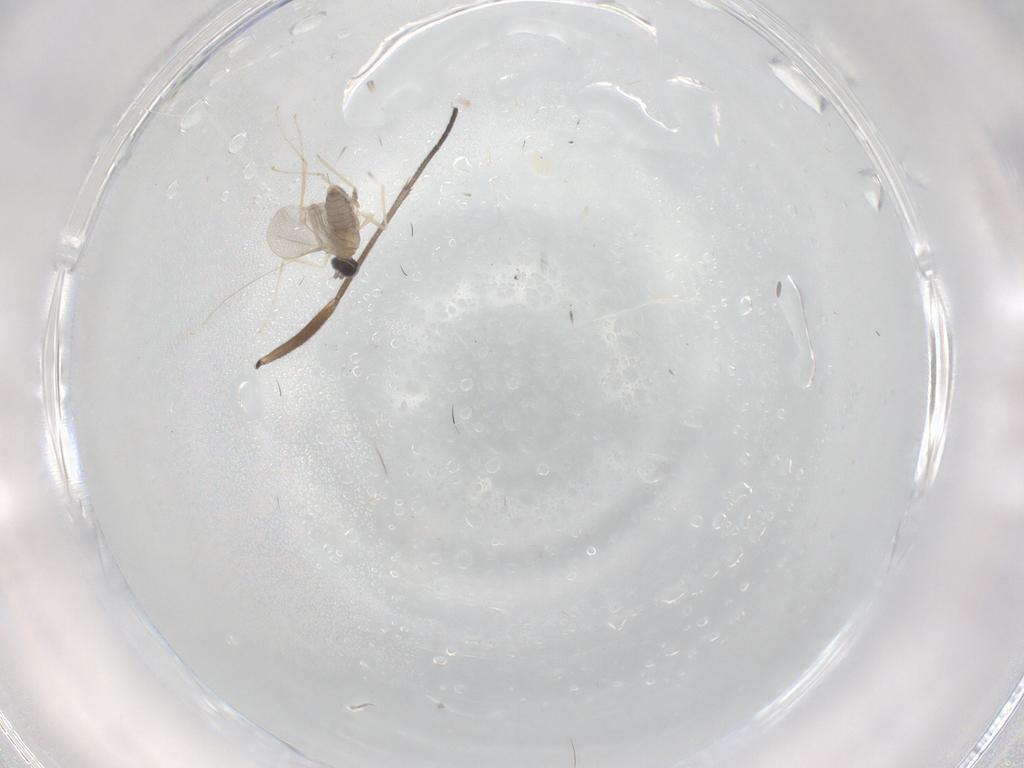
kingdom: Animalia
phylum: Arthropoda
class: Insecta
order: Diptera
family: Cecidomyiidae
